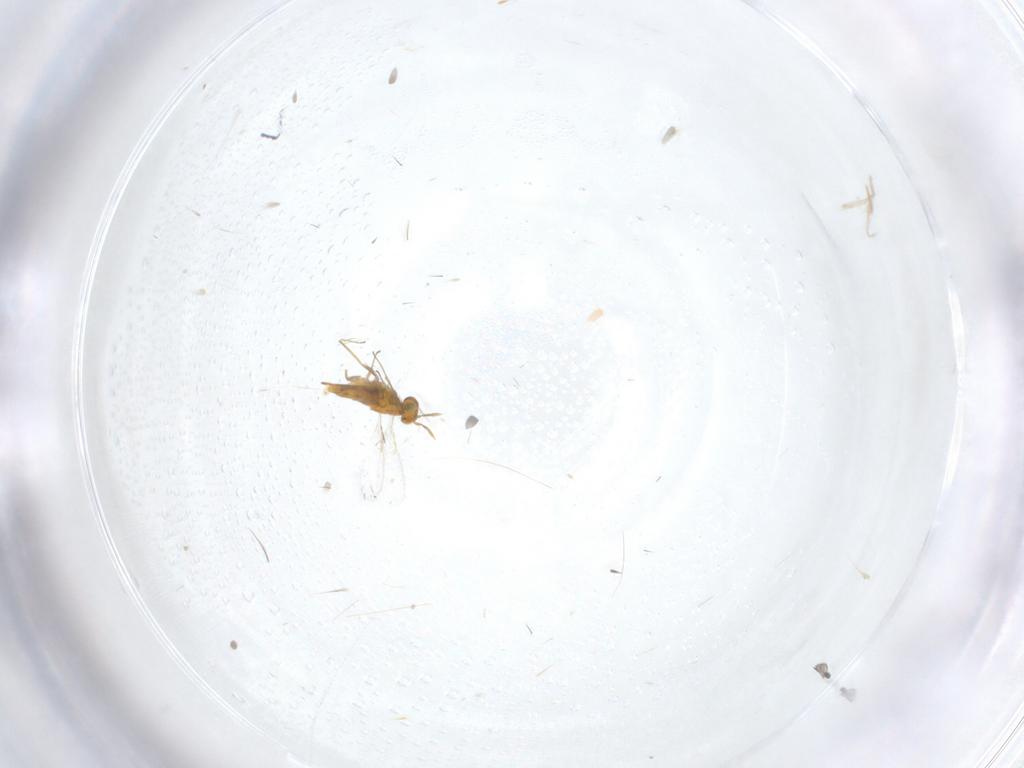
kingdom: Animalia
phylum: Arthropoda
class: Insecta
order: Hymenoptera
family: Aphelinidae
